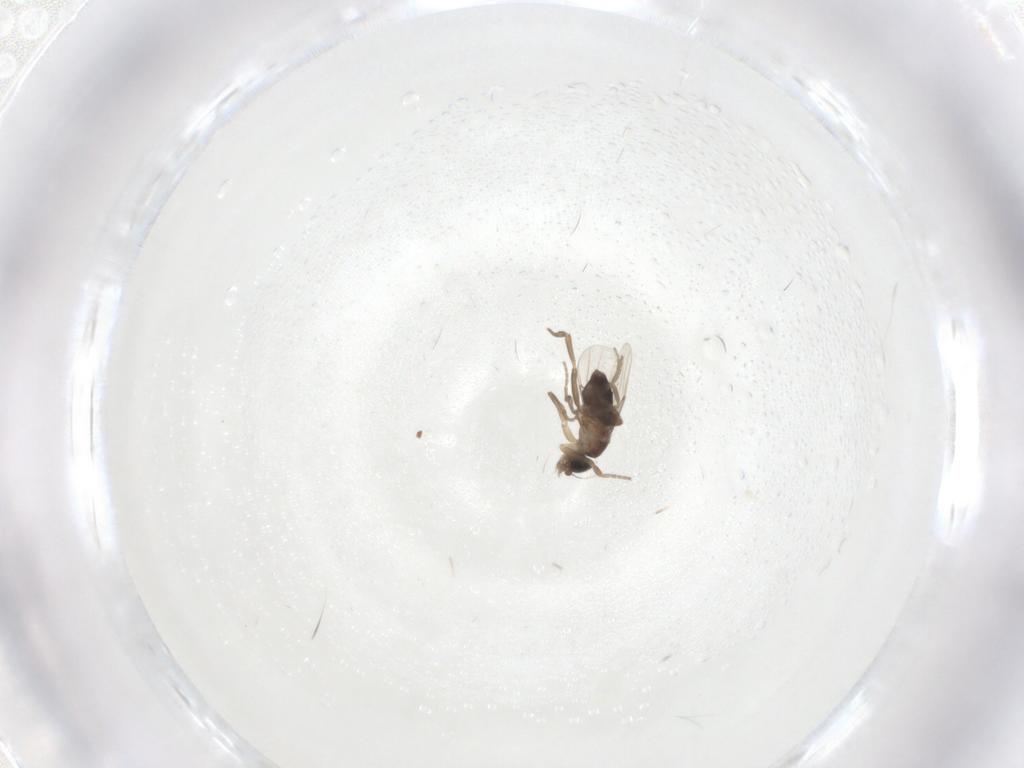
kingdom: Animalia
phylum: Arthropoda
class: Insecta
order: Diptera
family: Phoridae
